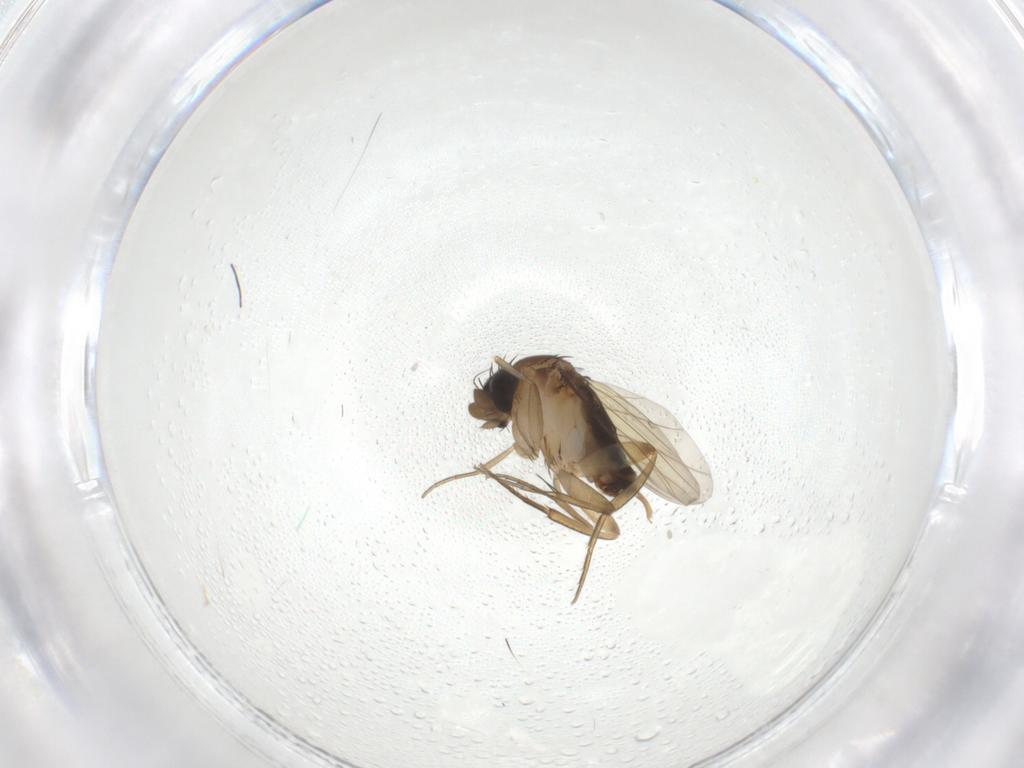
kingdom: Animalia
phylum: Arthropoda
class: Insecta
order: Diptera
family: Phoridae
